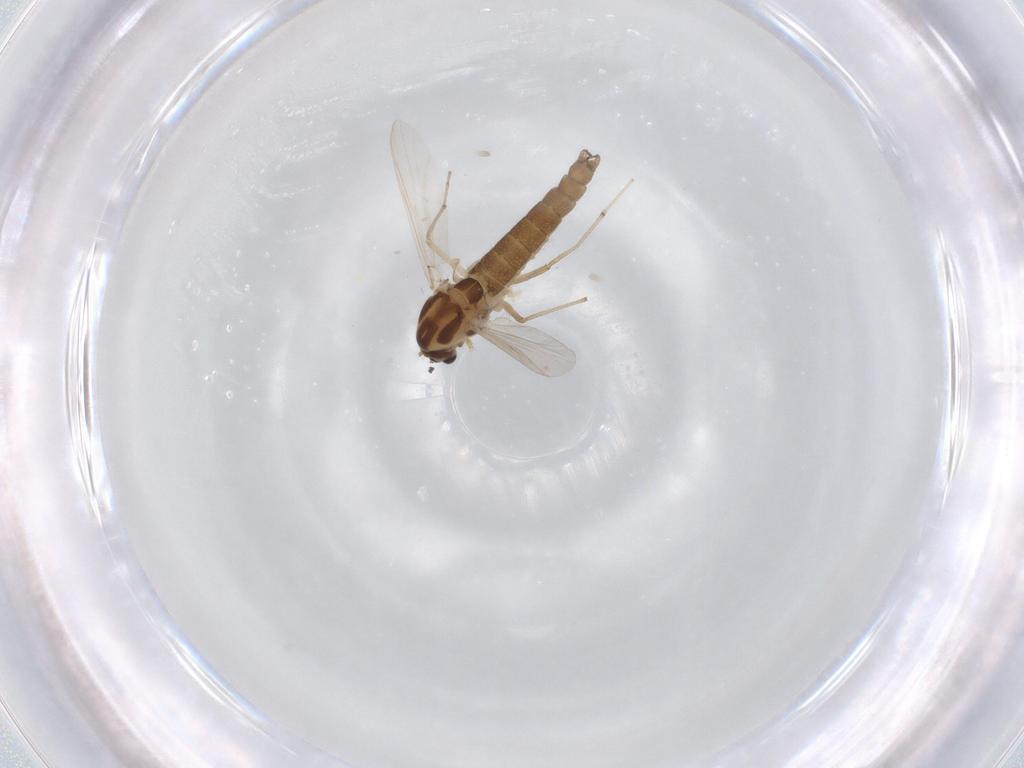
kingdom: Animalia
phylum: Arthropoda
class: Insecta
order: Diptera
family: Chironomidae
